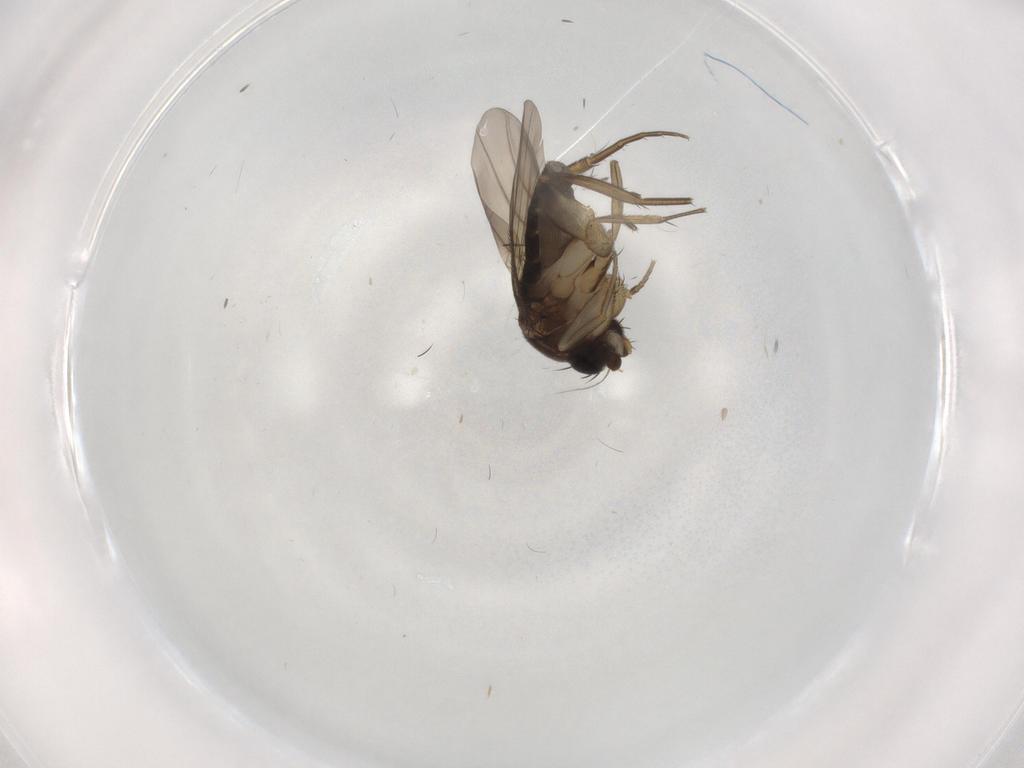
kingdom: Animalia
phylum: Arthropoda
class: Insecta
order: Diptera
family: Phoridae
